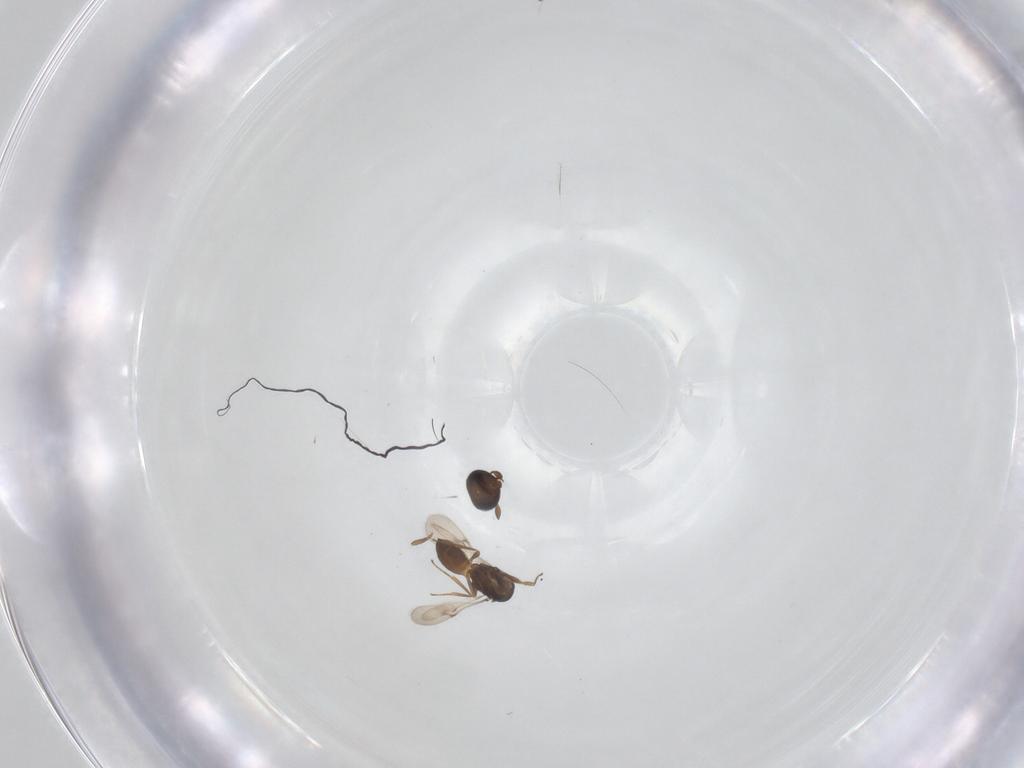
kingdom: Animalia
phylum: Arthropoda
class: Insecta
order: Hymenoptera
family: Scelionidae
